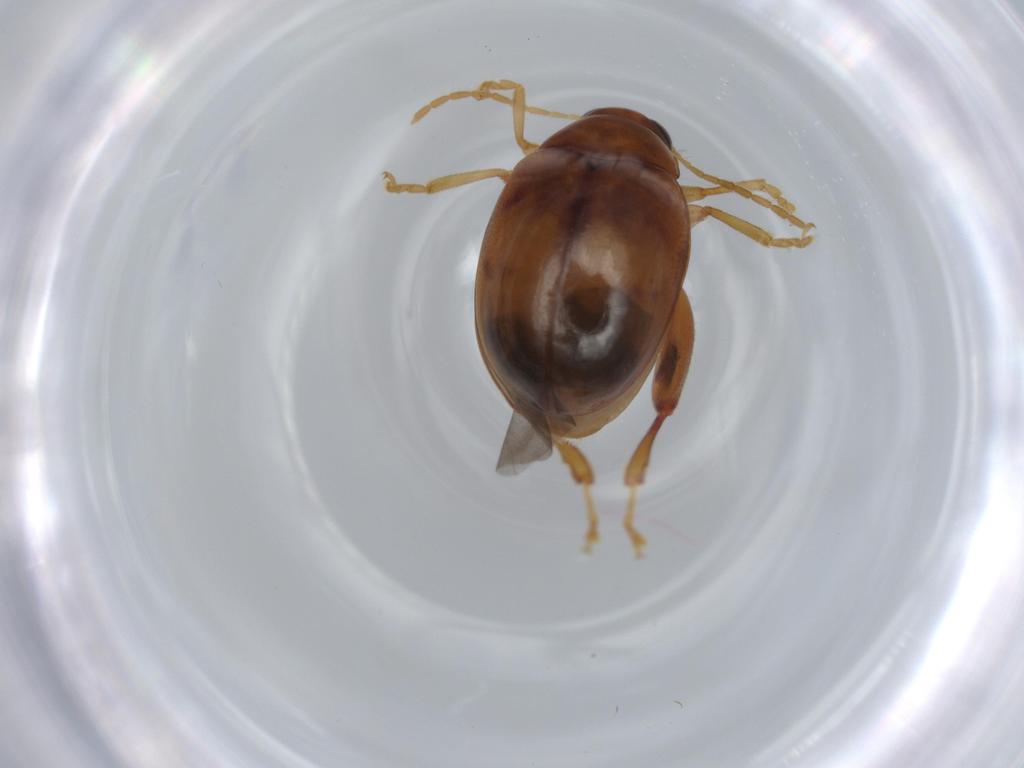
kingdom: Animalia
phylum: Arthropoda
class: Insecta
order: Coleoptera
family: Chrysomelidae
